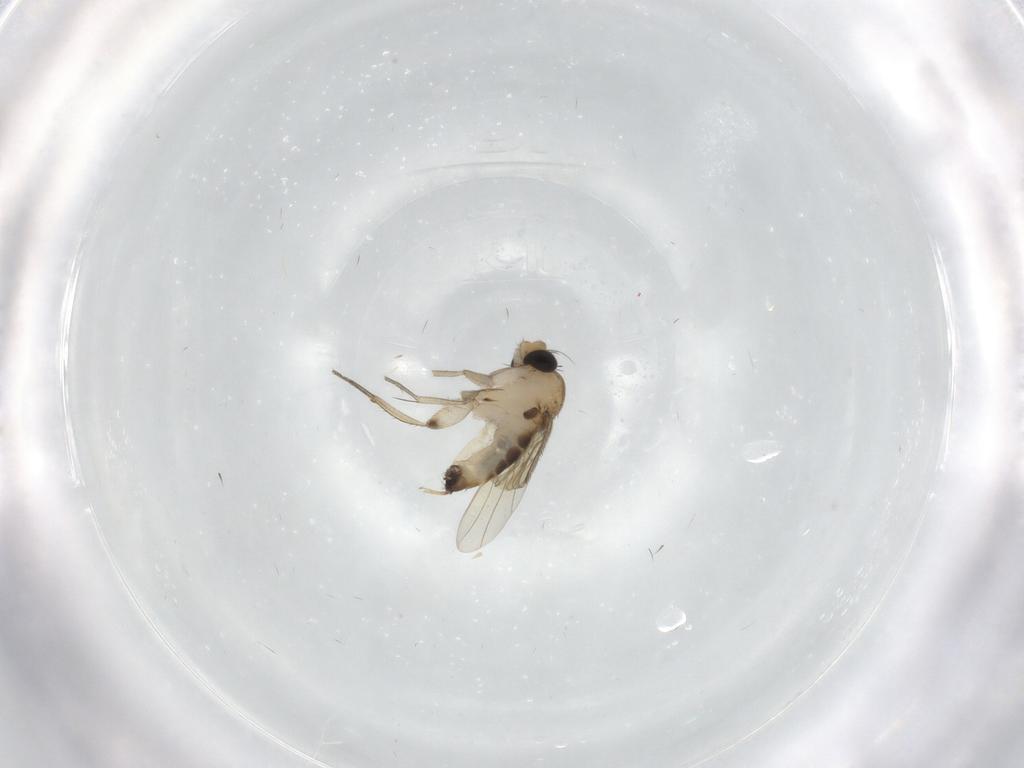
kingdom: Animalia
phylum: Arthropoda
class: Insecta
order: Diptera
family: Phoridae
